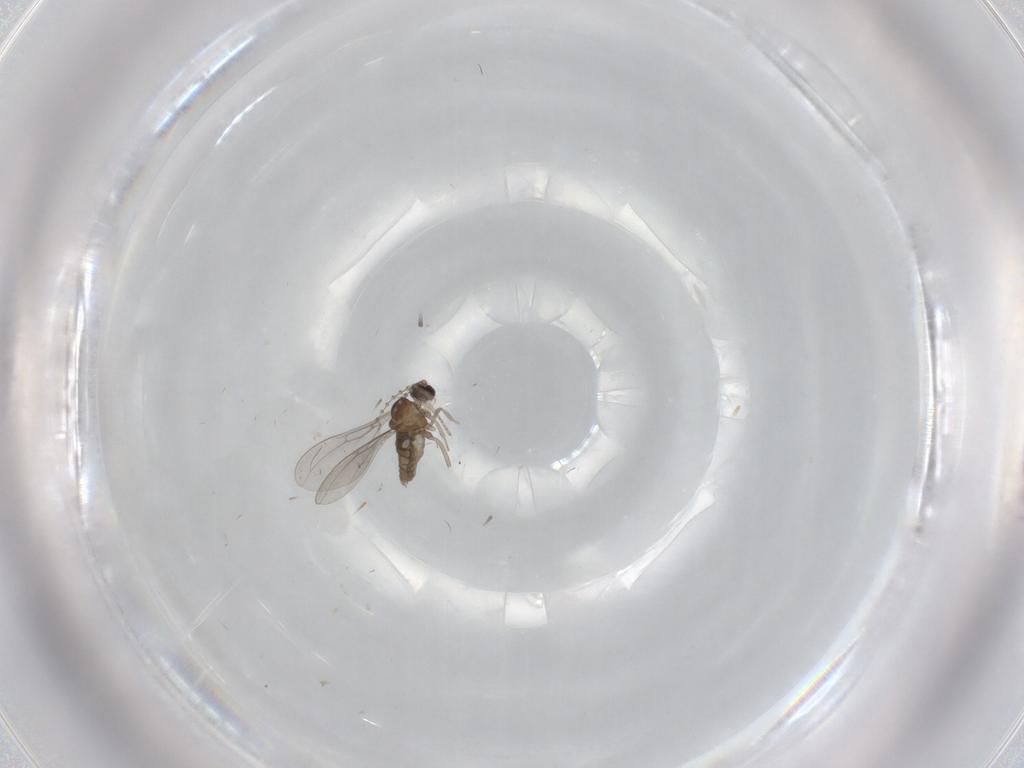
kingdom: Animalia
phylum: Arthropoda
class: Insecta
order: Diptera
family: Cecidomyiidae
